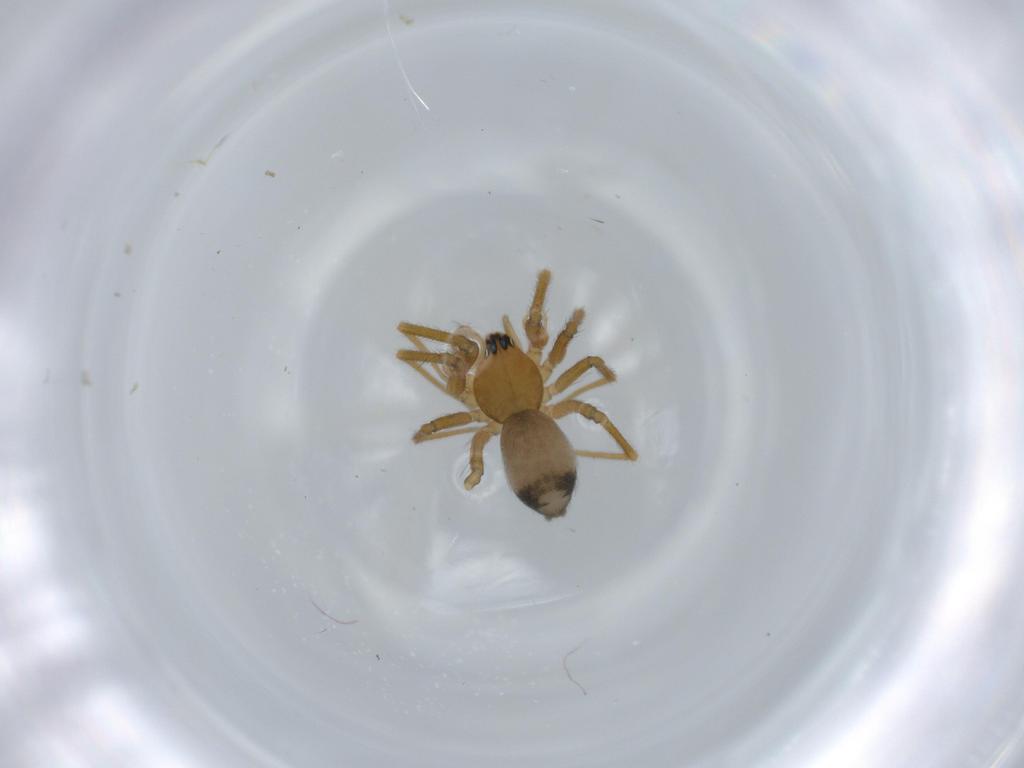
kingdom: Animalia
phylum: Arthropoda
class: Arachnida
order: Araneae
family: Linyphiidae
